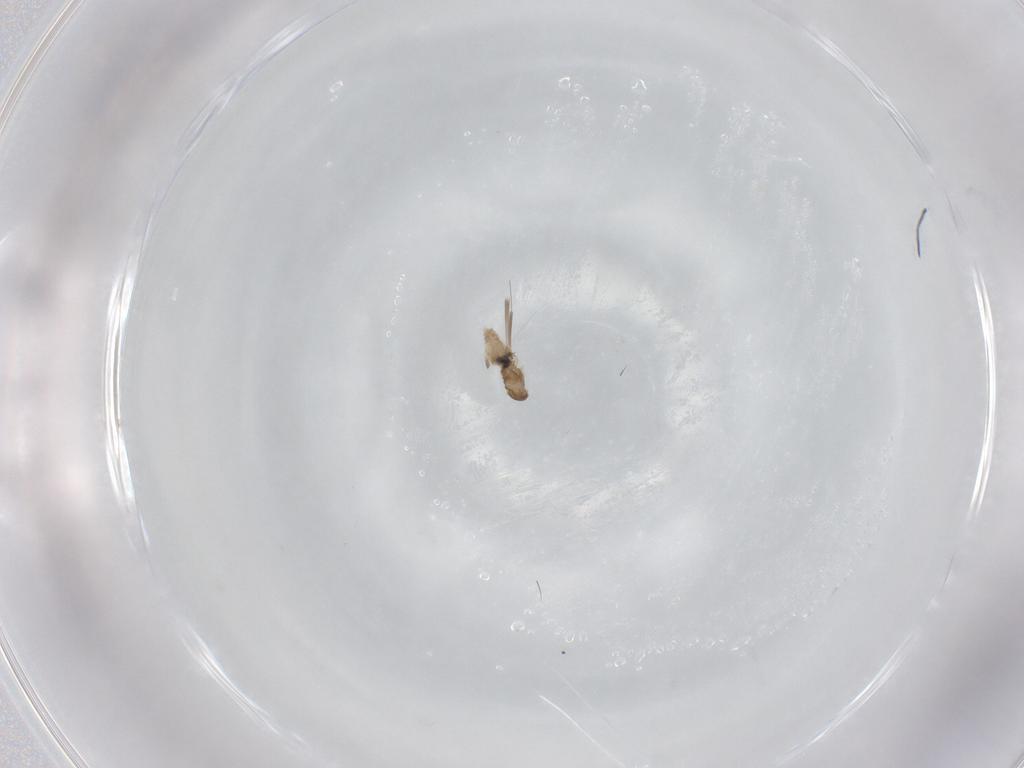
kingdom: Animalia
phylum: Arthropoda
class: Insecta
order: Diptera
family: Cecidomyiidae
